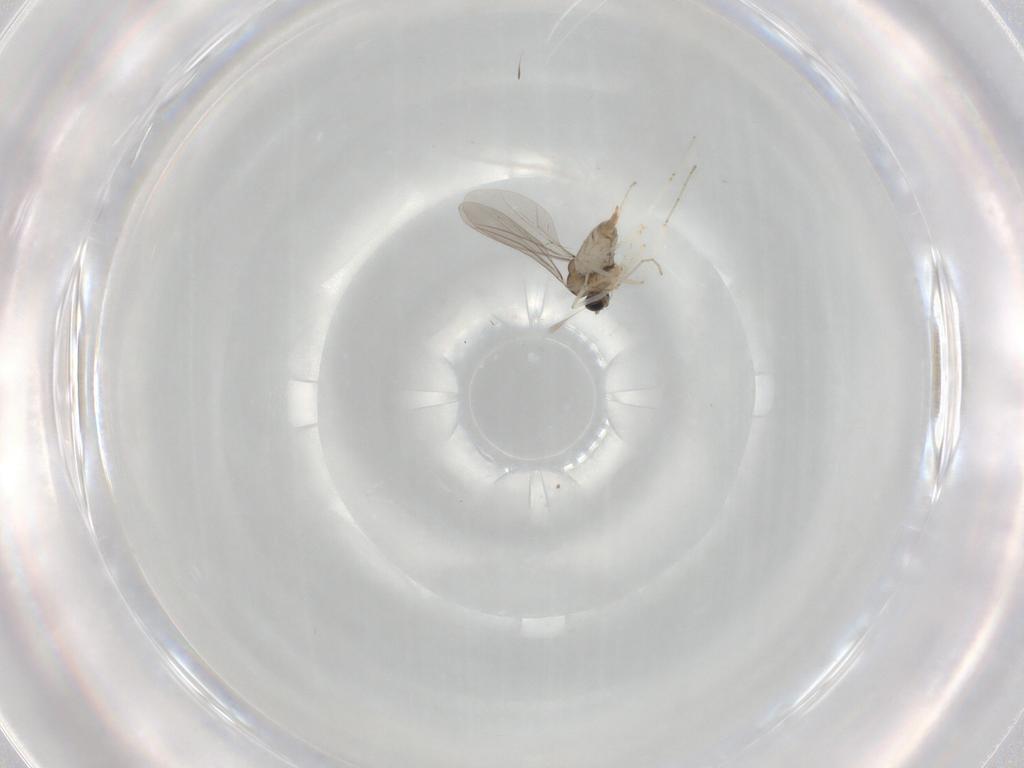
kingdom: Animalia
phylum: Arthropoda
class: Insecta
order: Diptera
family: Cecidomyiidae
